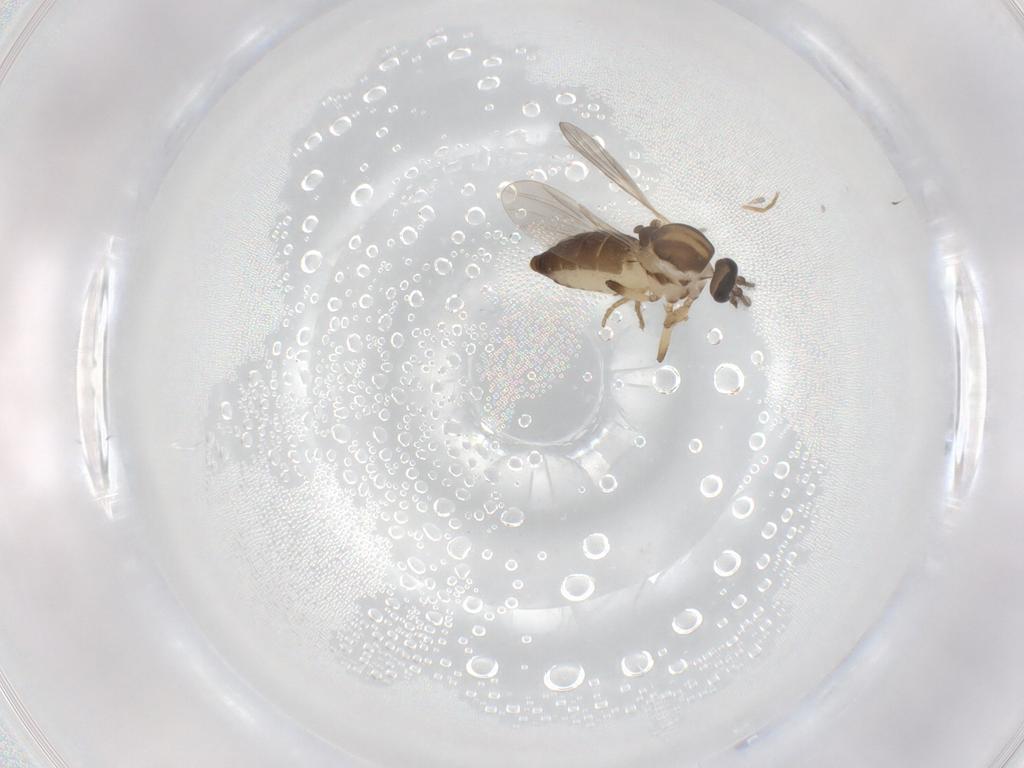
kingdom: Animalia
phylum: Arthropoda
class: Insecta
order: Diptera
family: Ceratopogonidae
